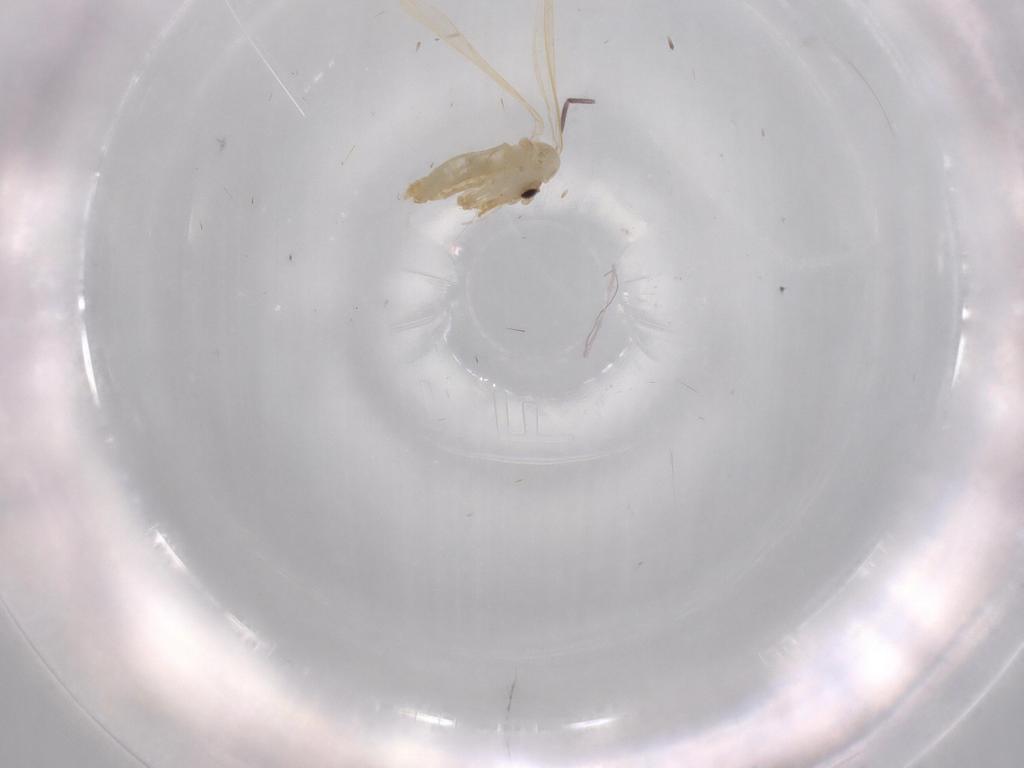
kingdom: Animalia
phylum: Arthropoda
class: Insecta
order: Diptera
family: Psychodidae
